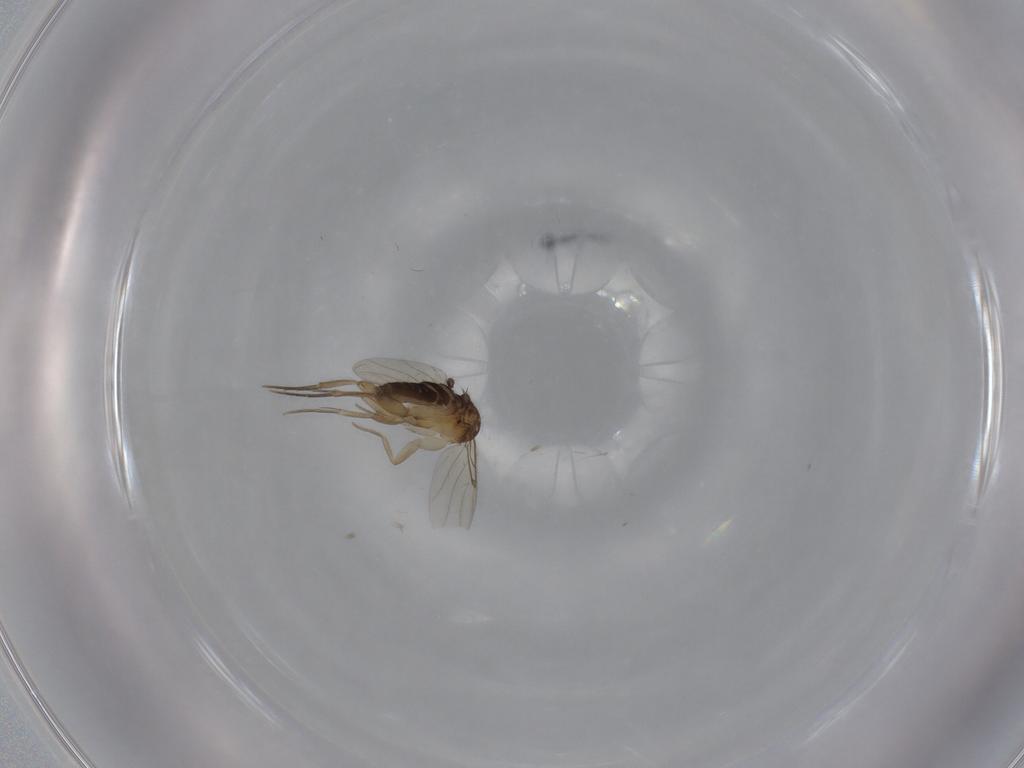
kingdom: Animalia
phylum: Arthropoda
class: Insecta
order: Diptera
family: Phoridae
